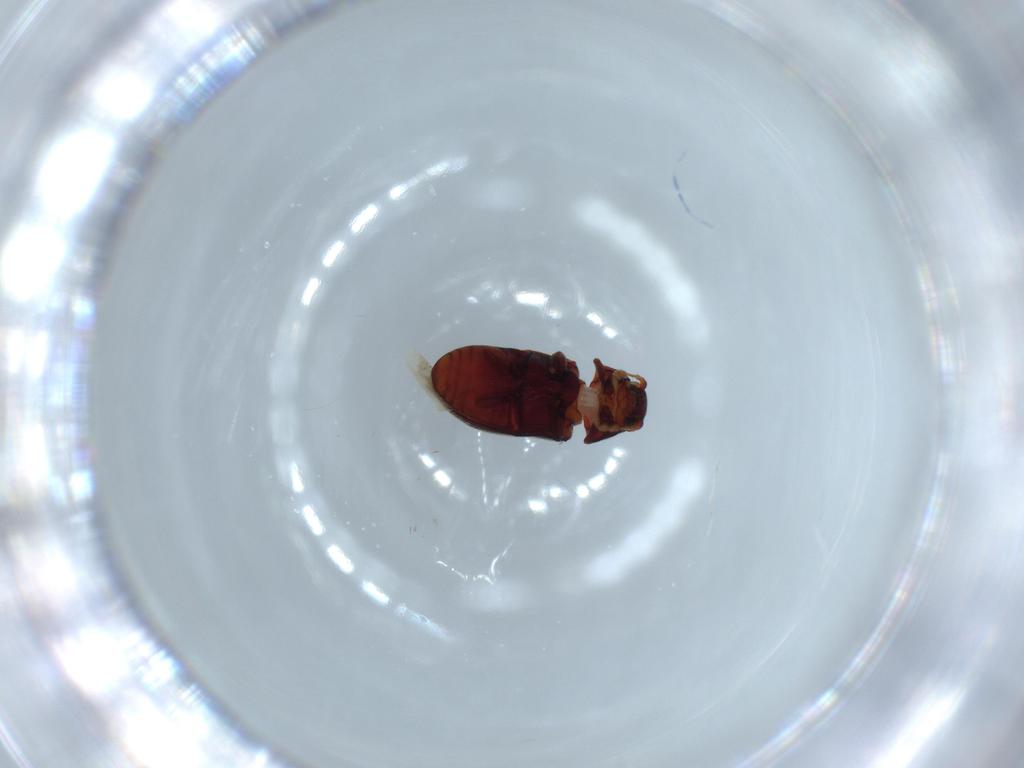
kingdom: Animalia
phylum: Arthropoda
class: Insecta
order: Coleoptera
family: Ptinidae
